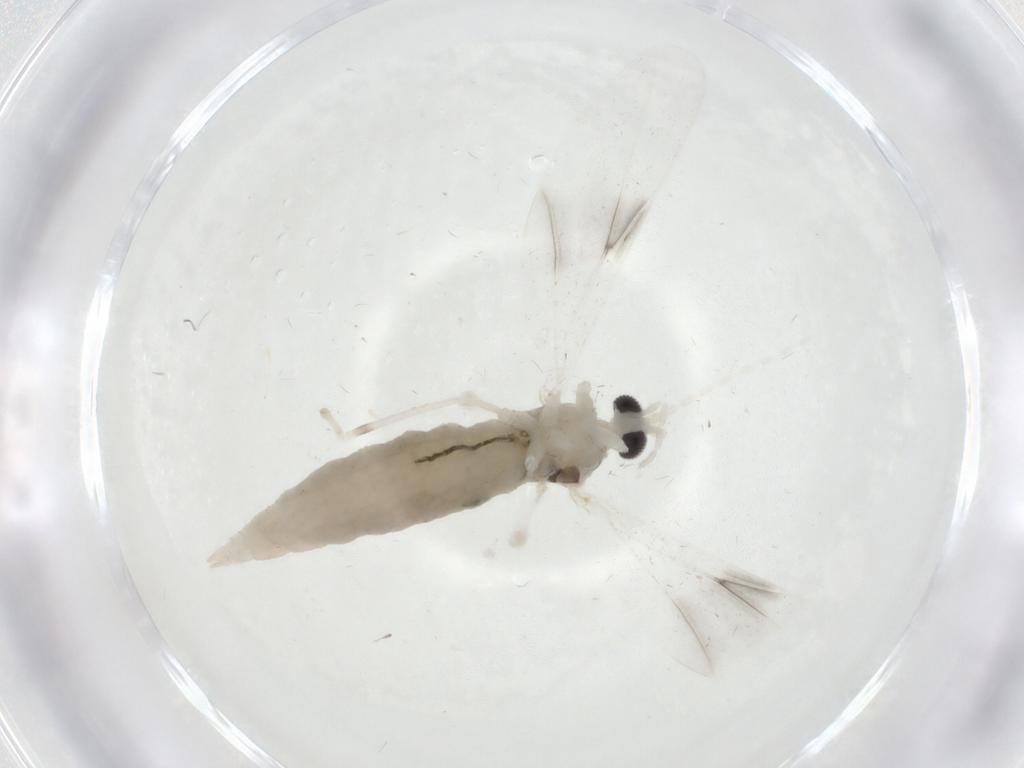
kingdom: Animalia
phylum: Arthropoda
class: Insecta
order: Diptera
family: Cecidomyiidae
